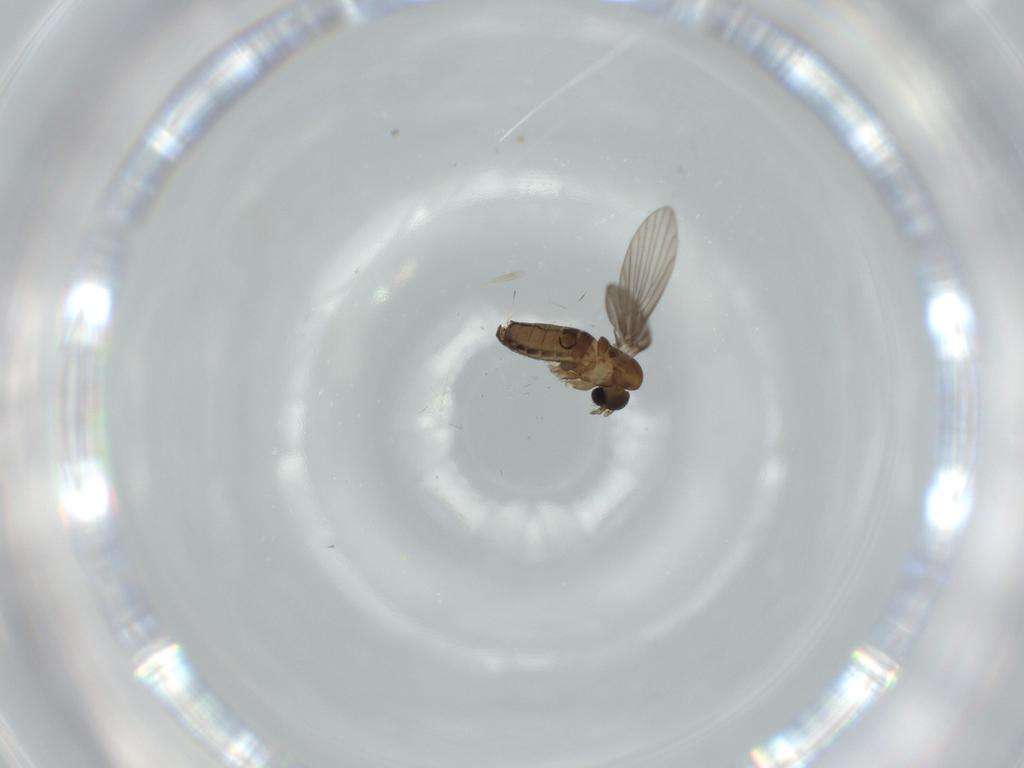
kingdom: Animalia
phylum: Arthropoda
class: Insecta
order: Diptera
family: Psychodidae
